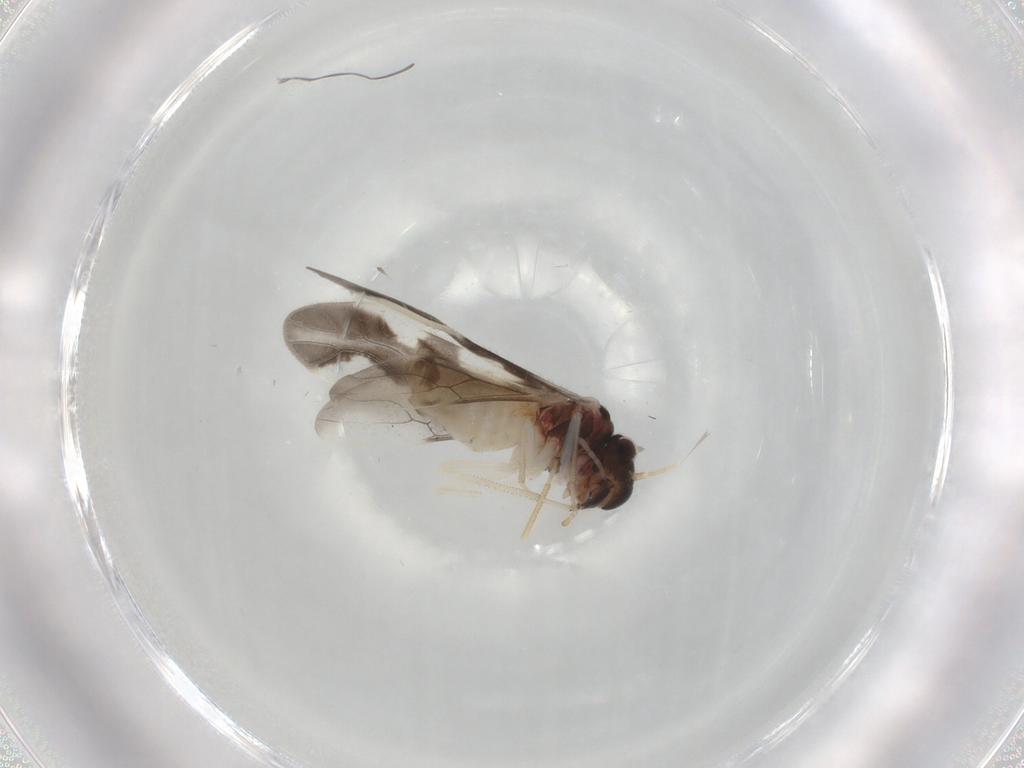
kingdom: Animalia
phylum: Arthropoda
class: Insecta
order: Psocodea
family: Caeciliusidae
